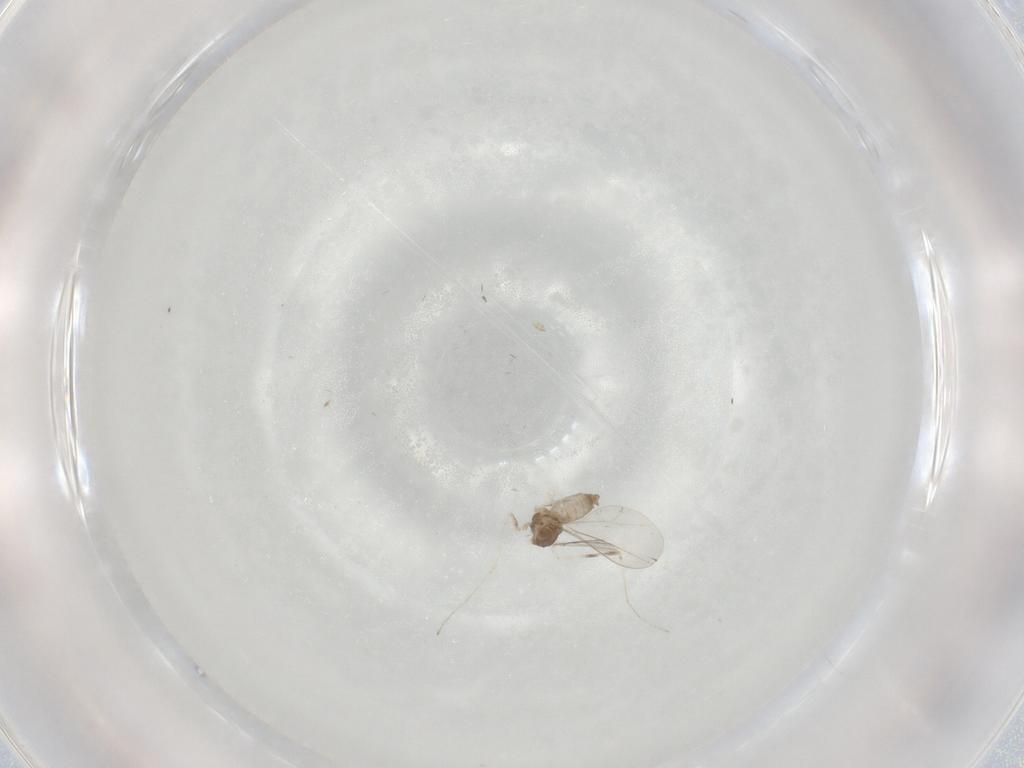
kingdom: Animalia
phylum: Arthropoda
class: Insecta
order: Diptera
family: Cecidomyiidae
